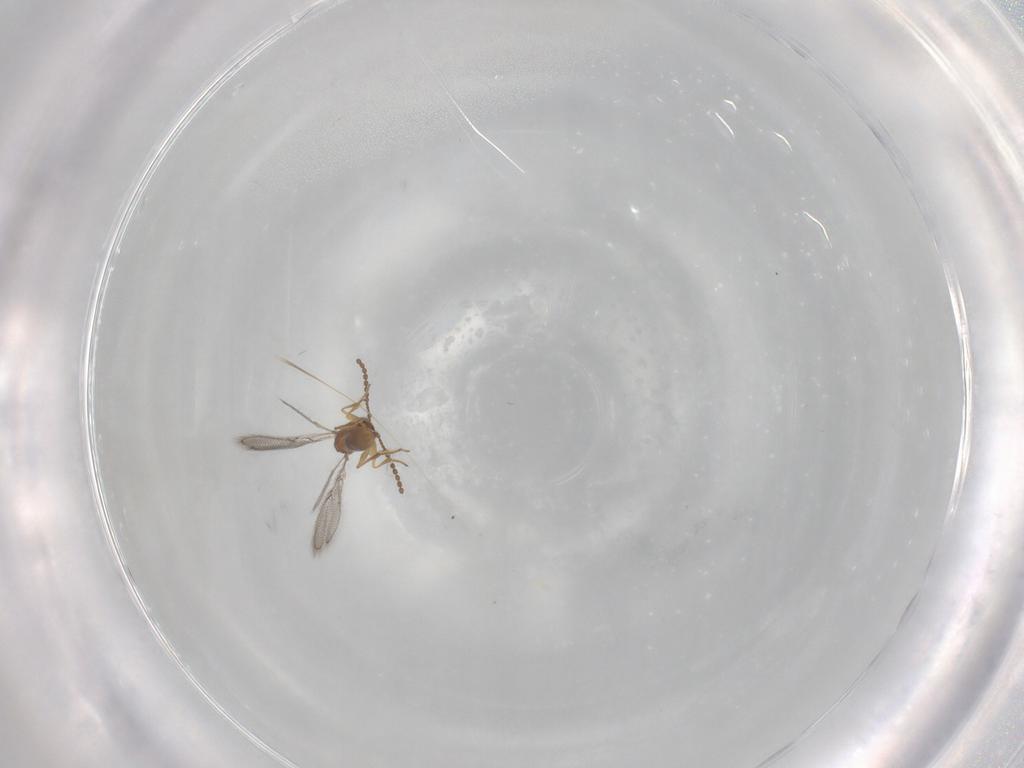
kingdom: Animalia
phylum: Arthropoda
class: Insecta
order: Hymenoptera
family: Figitidae
